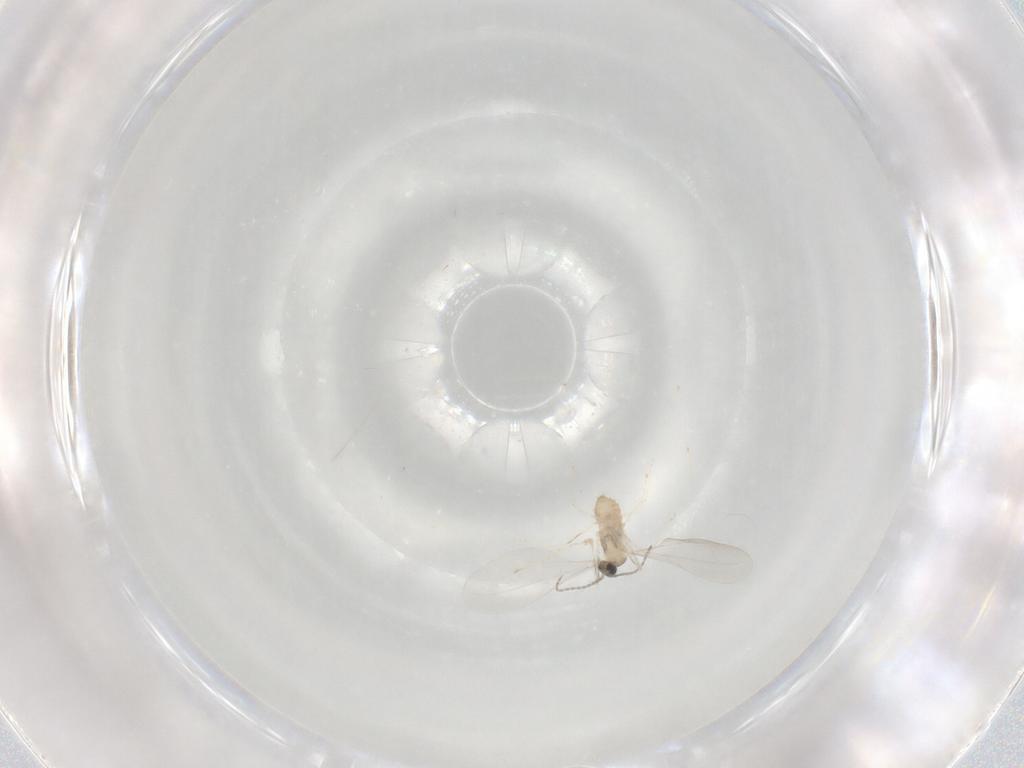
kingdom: Animalia
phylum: Arthropoda
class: Insecta
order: Diptera
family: Cecidomyiidae
